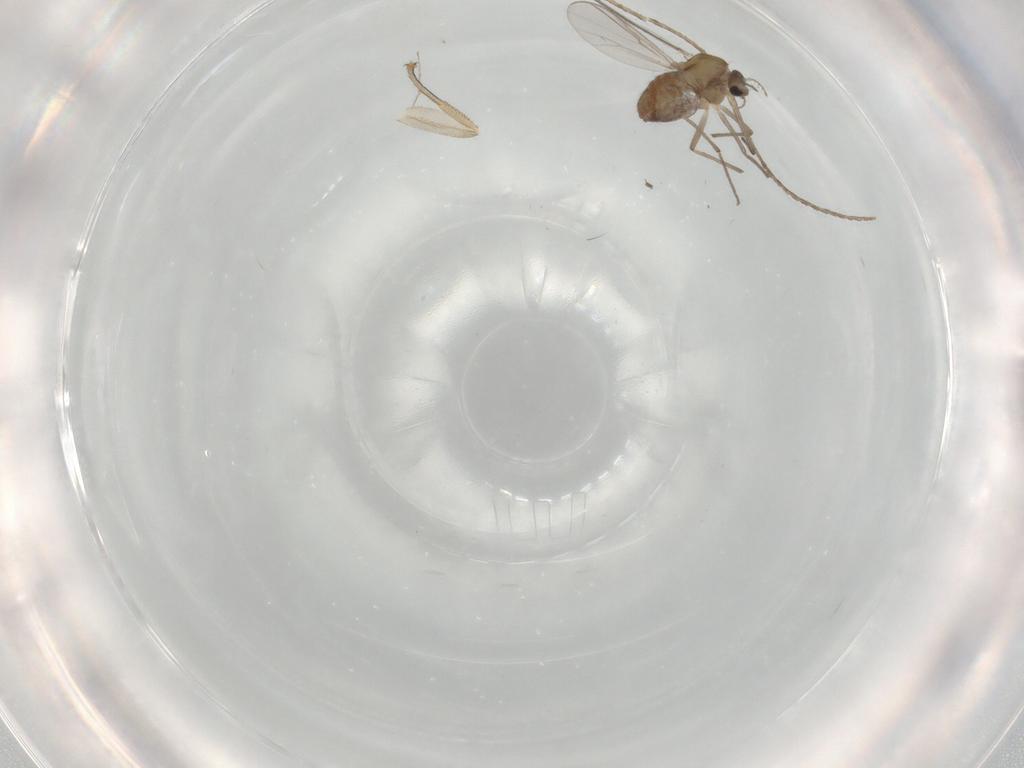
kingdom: Animalia
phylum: Arthropoda
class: Insecta
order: Diptera
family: Chironomidae
